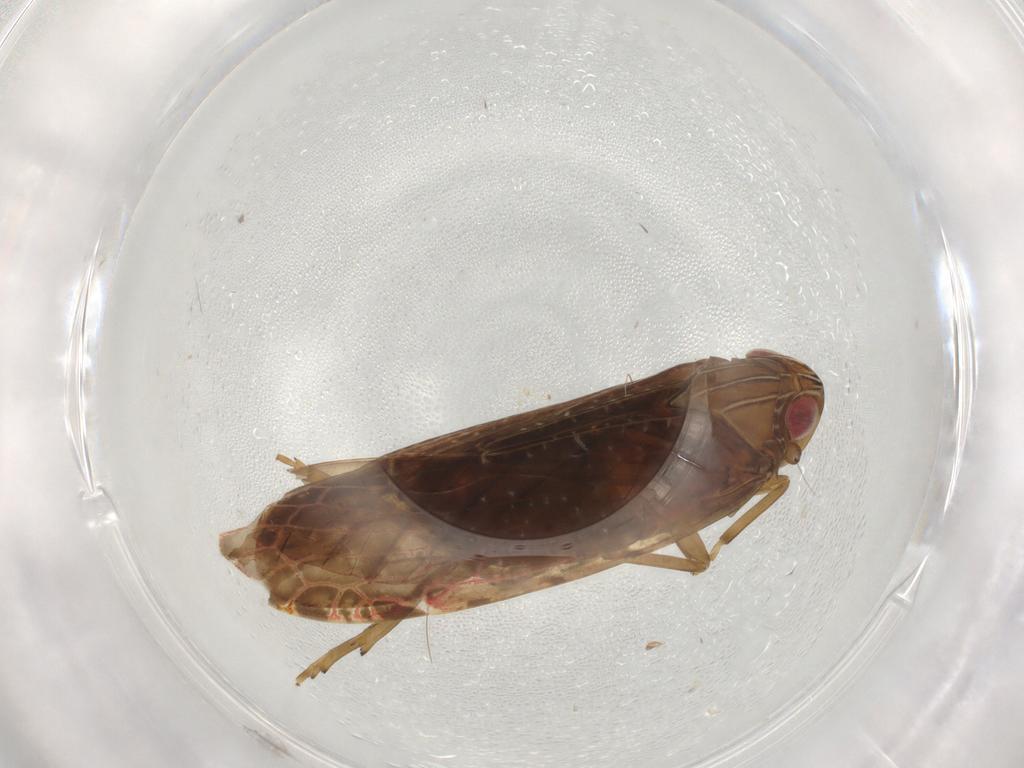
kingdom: Animalia
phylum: Arthropoda
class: Insecta
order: Hemiptera
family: Achilidae
